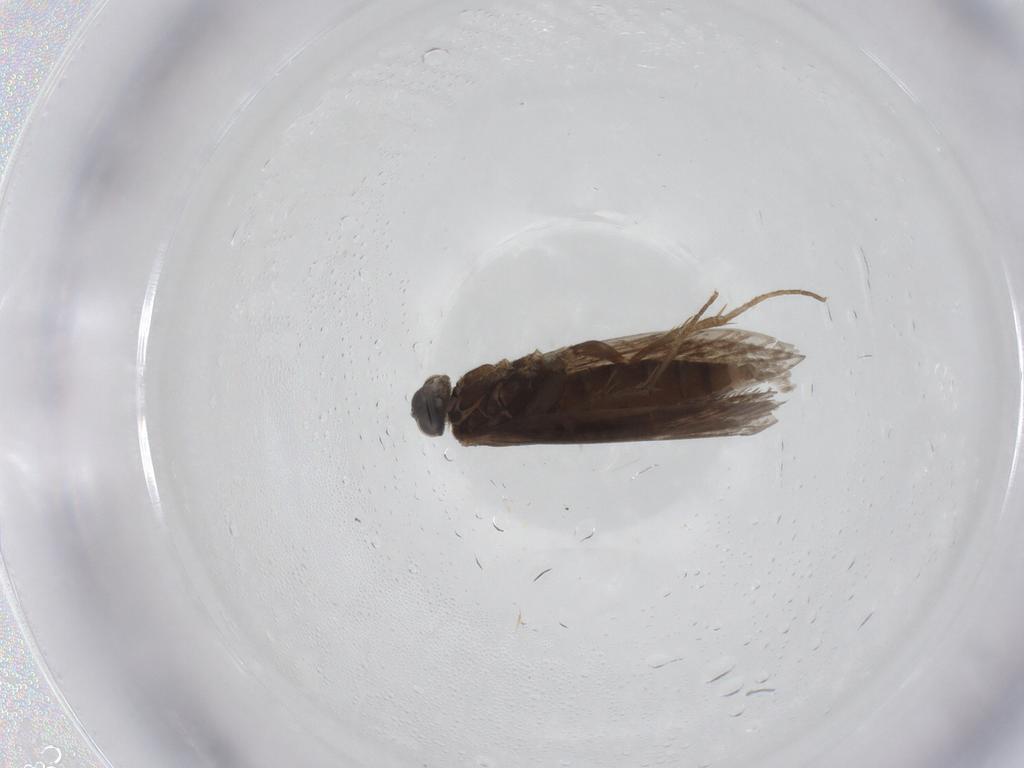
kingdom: Animalia
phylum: Arthropoda
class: Insecta
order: Lepidoptera
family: Micropterigidae
